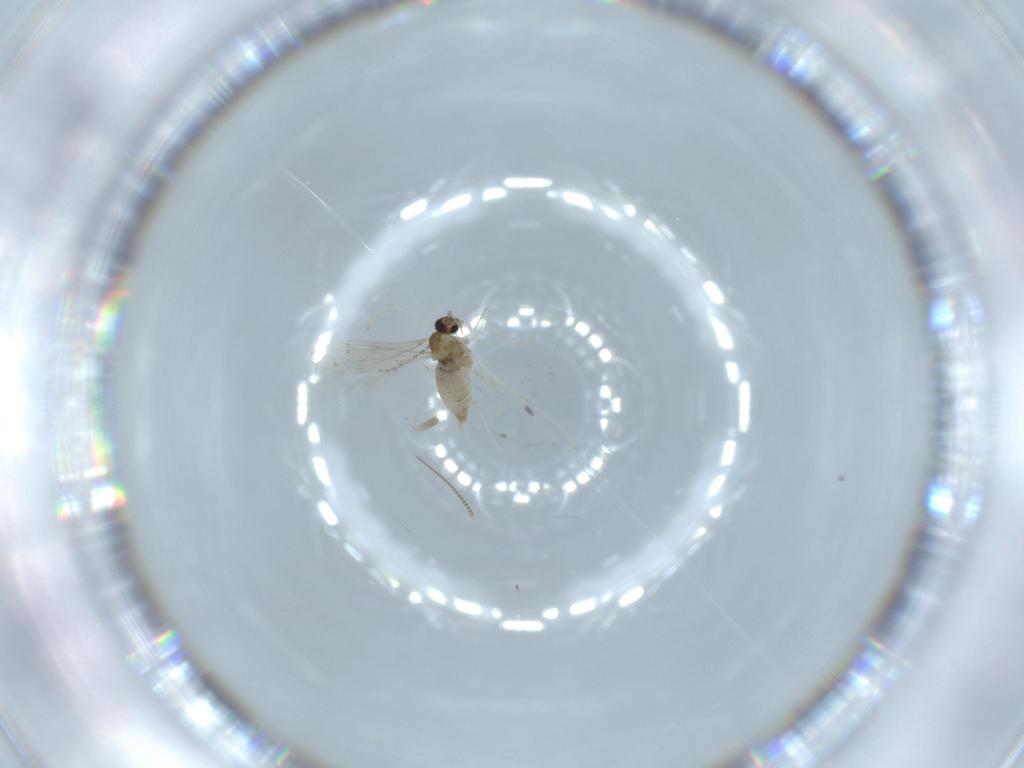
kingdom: Animalia
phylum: Arthropoda
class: Insecta
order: Diptera
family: Cecidomyiidae
